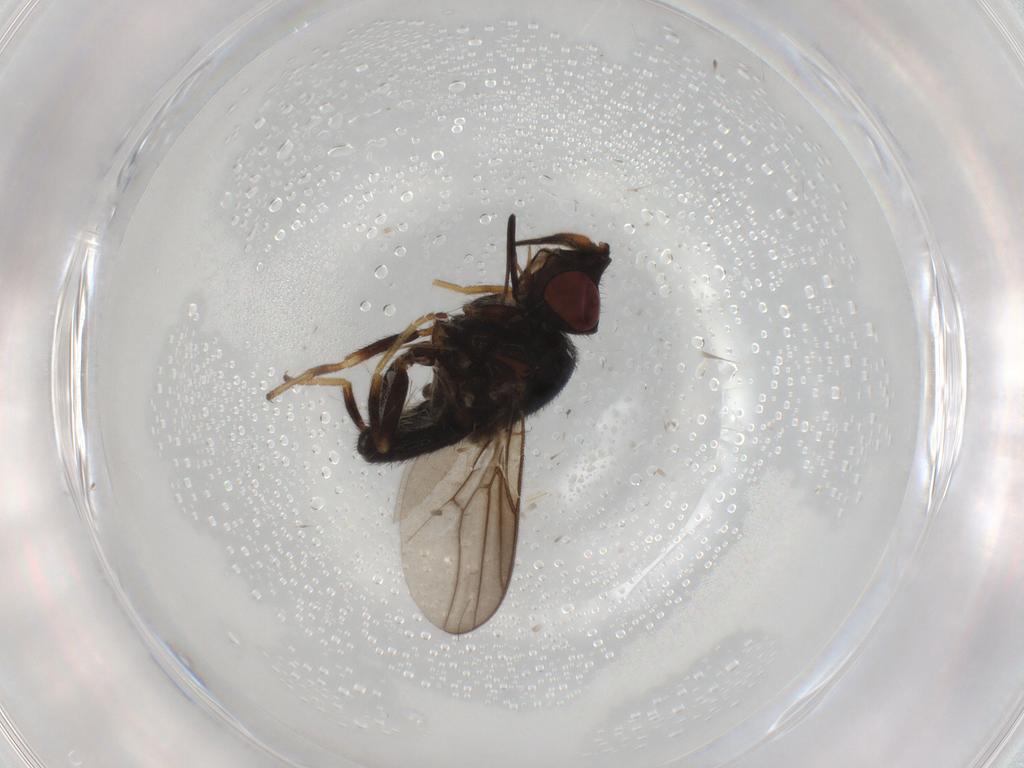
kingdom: Animalia
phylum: Arthropoda
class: Insecta
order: Diptera
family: Chloropidae
